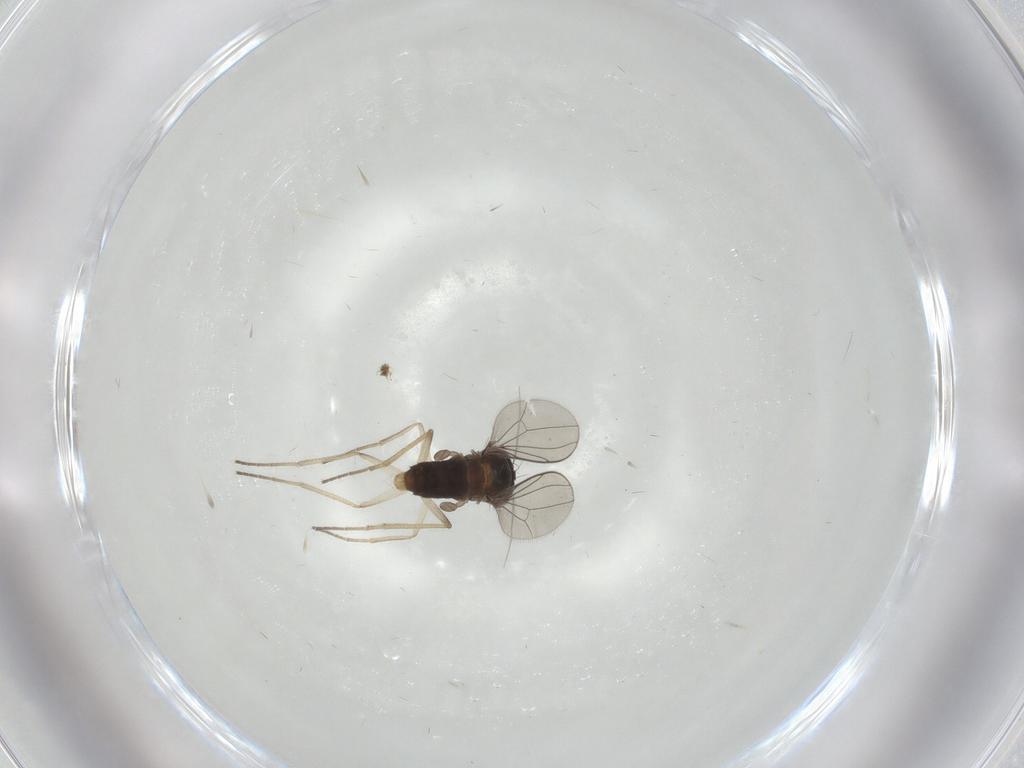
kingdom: Animalia
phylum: Arthropoda
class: Insecta
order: Diptera
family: Dolichopodidae
